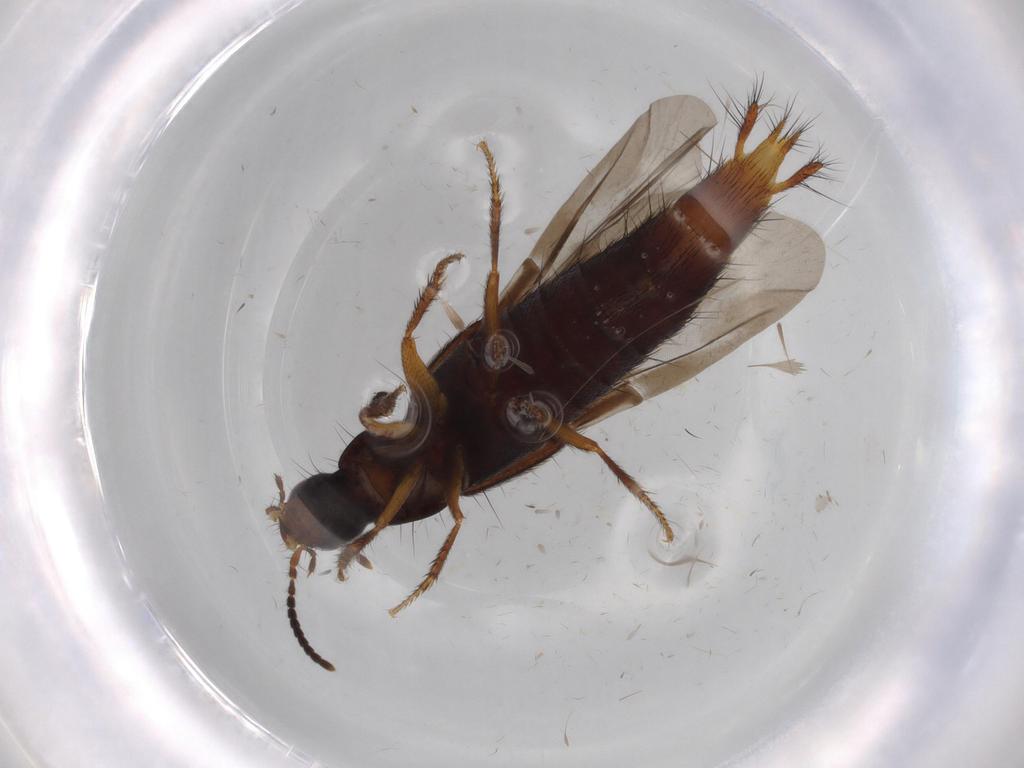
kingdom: Animalia
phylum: Arthropoda
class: Insecta
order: Coleoptera
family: Staphylinidae
